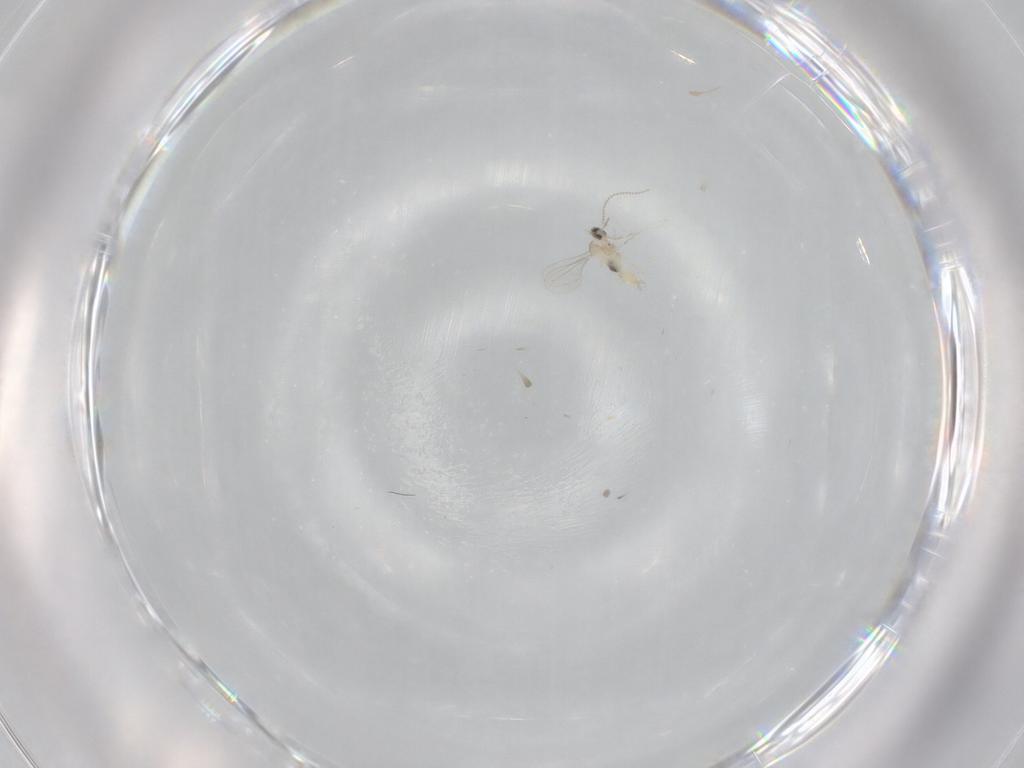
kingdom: Animalia
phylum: Arthropoda
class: Insecta
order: Diptera
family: Cecidomyiidae
